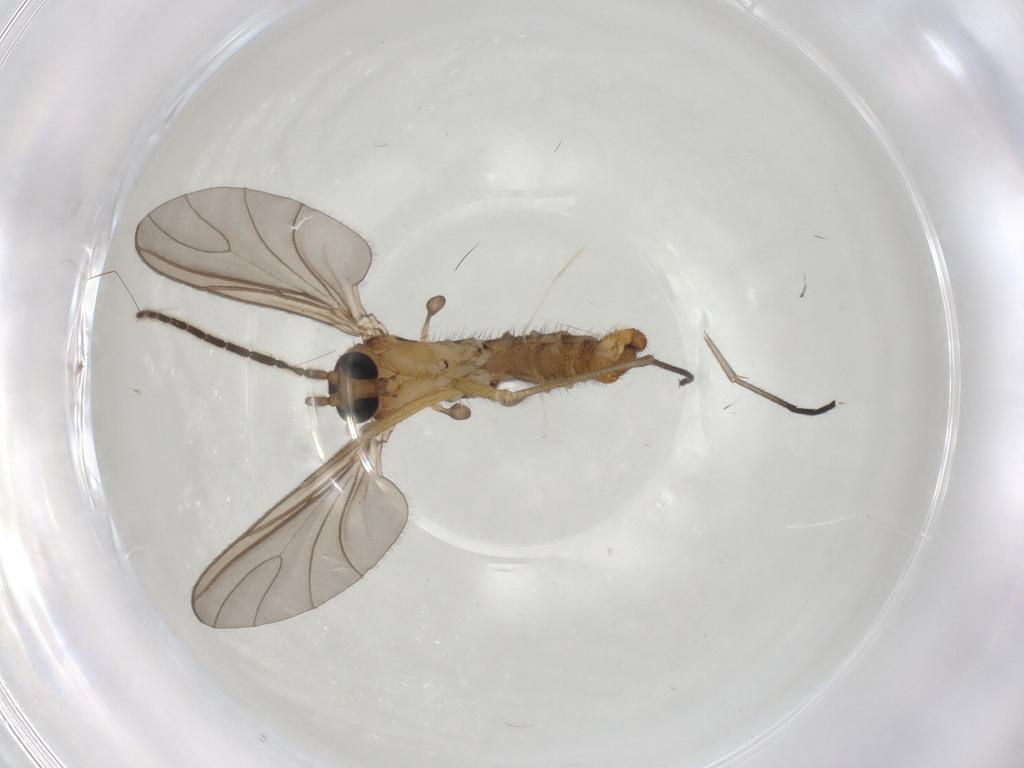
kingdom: Animalia
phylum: Arthropoda
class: Insecta
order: Diptera
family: Sciaridae
